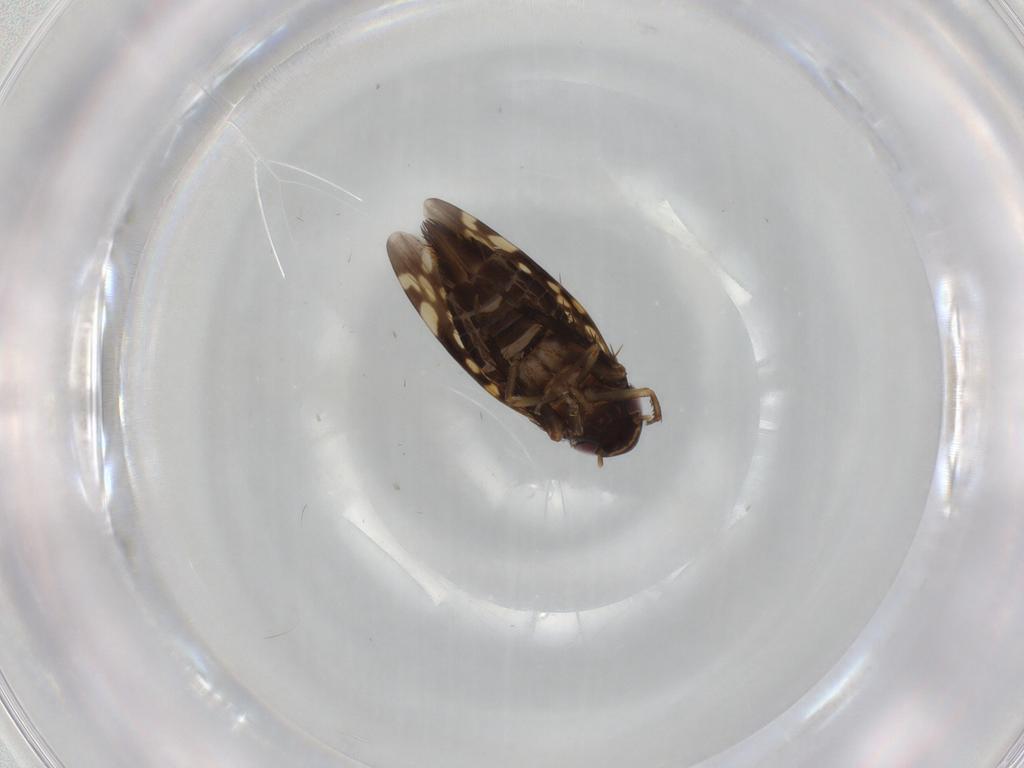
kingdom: Animalia
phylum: Arthropoda
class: Insecta
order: Hemiptera
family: Cicadellidae
